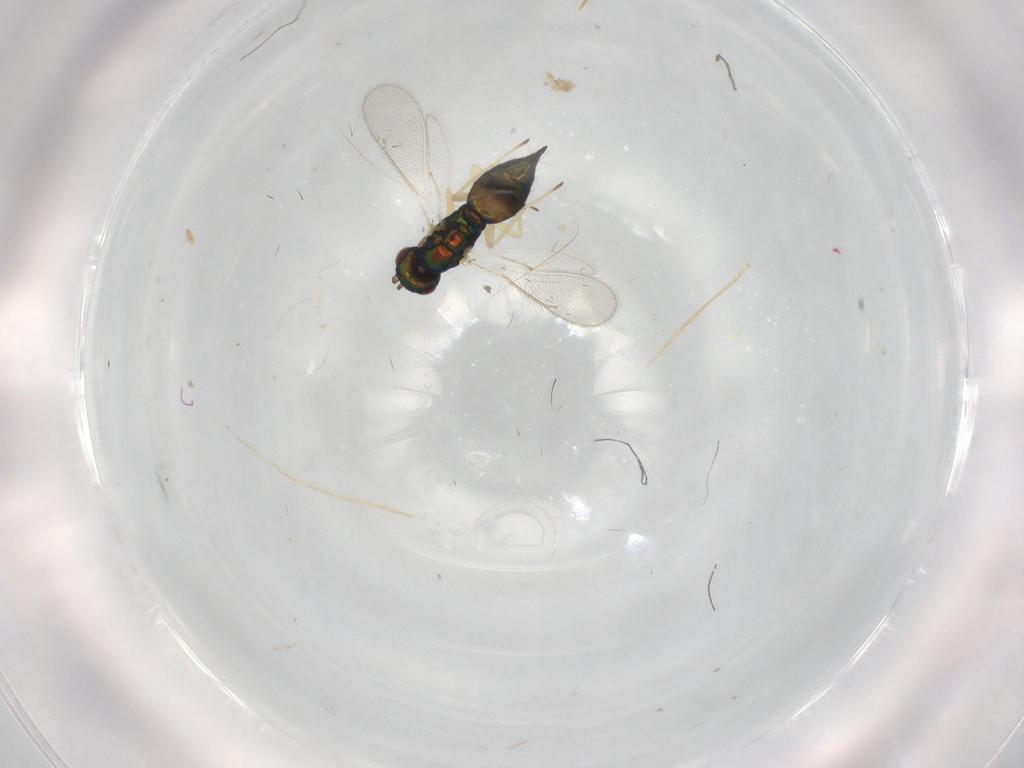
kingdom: Animalia
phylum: Arthropoda
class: Insecta
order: Hymenoptera
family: Eulophidae
